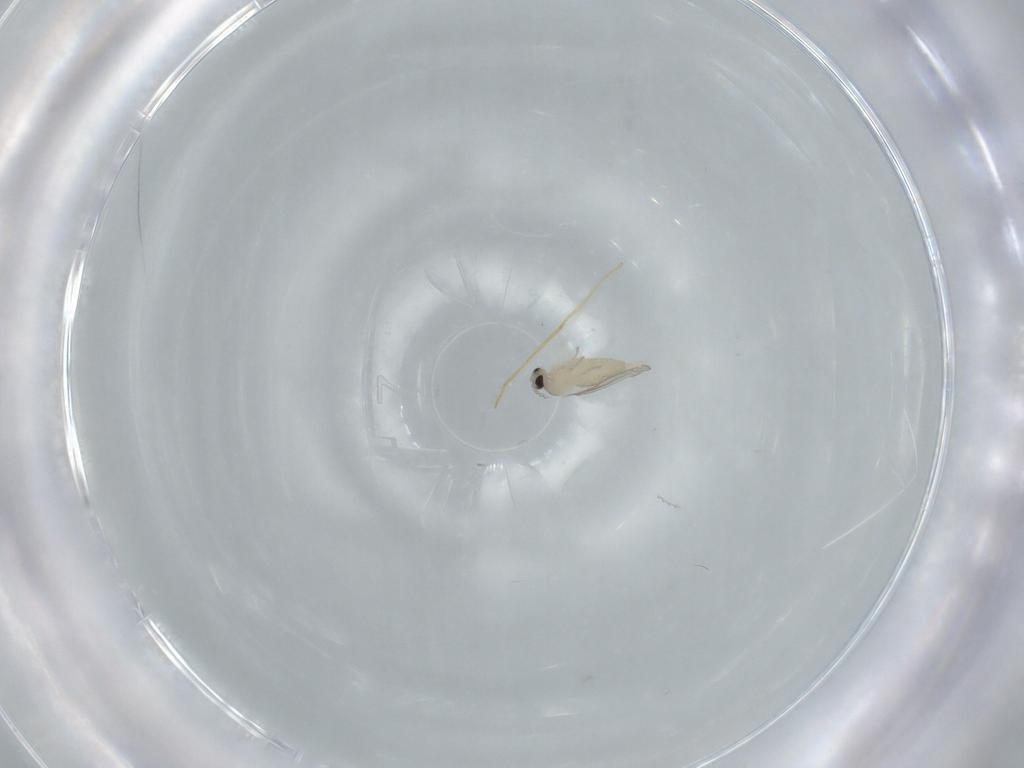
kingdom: Animalia
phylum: Arthropoda
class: Insecta
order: Diptera
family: Cecidomyiidae
